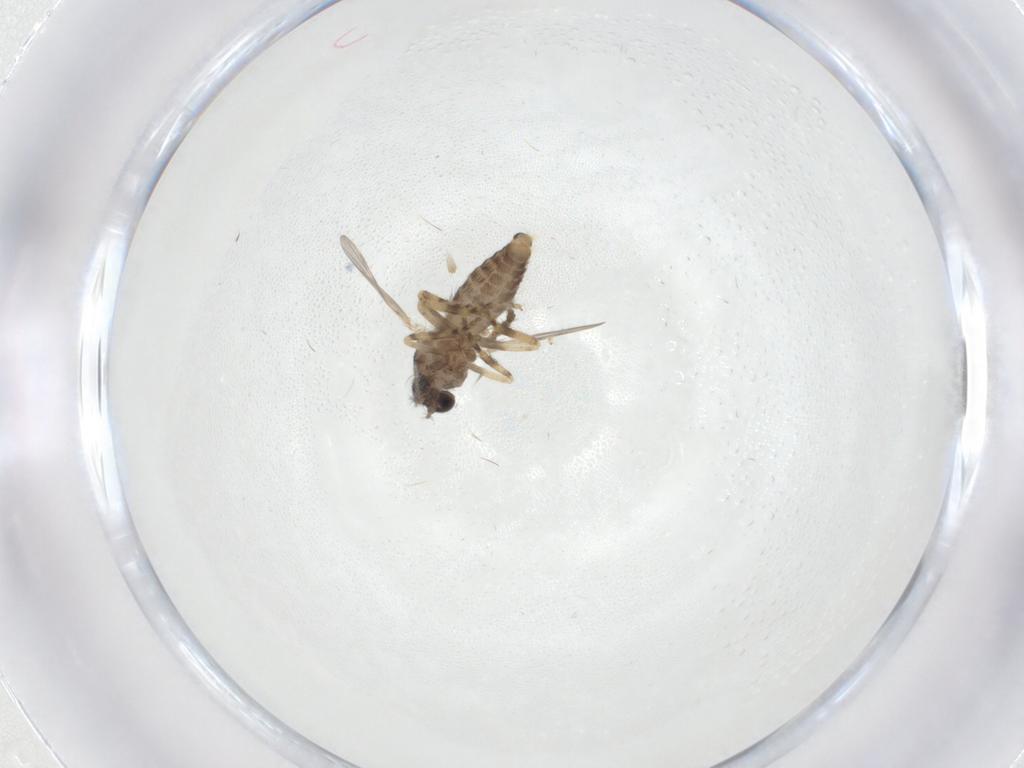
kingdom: Animalia
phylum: Arthropoda
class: Insecta
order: Diptera
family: Ceratopogonidae
